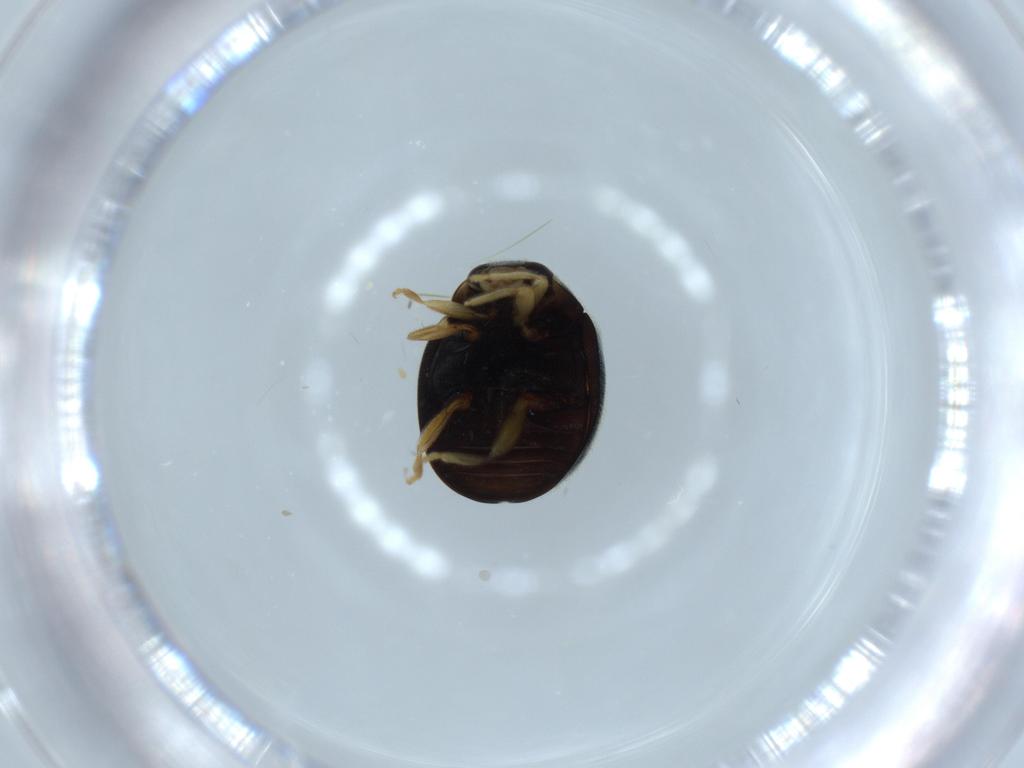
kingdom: Animalia
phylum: Arthropoda
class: Insecta
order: Coleoptera
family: Coccinellidae
